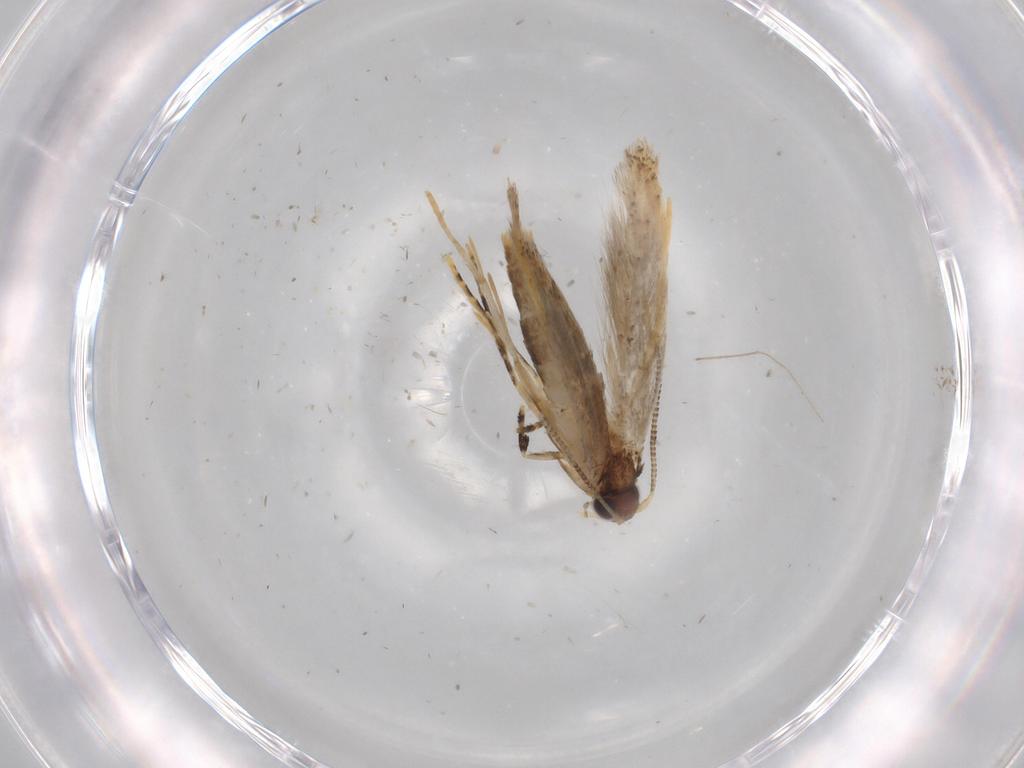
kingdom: Animalia
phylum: Arthropoda
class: Insecta
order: Lepidoptera
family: Tineidae
